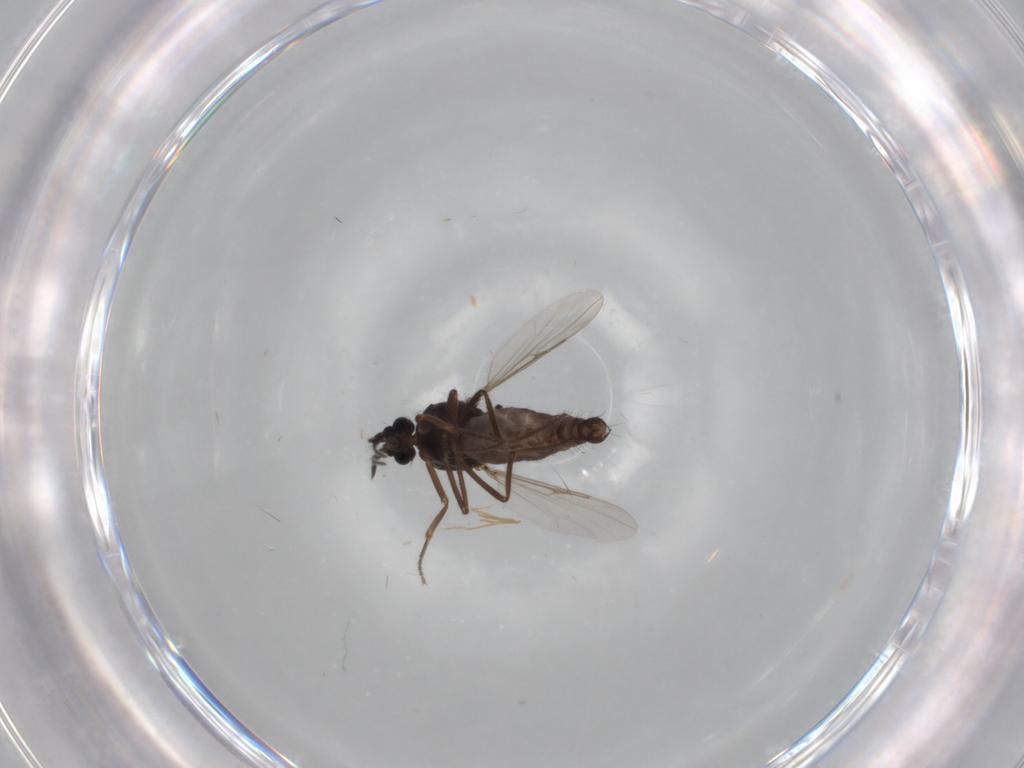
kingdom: Animalia
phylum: Arthropoda
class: Insecta
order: Diptera
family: Ceratopogonidae
